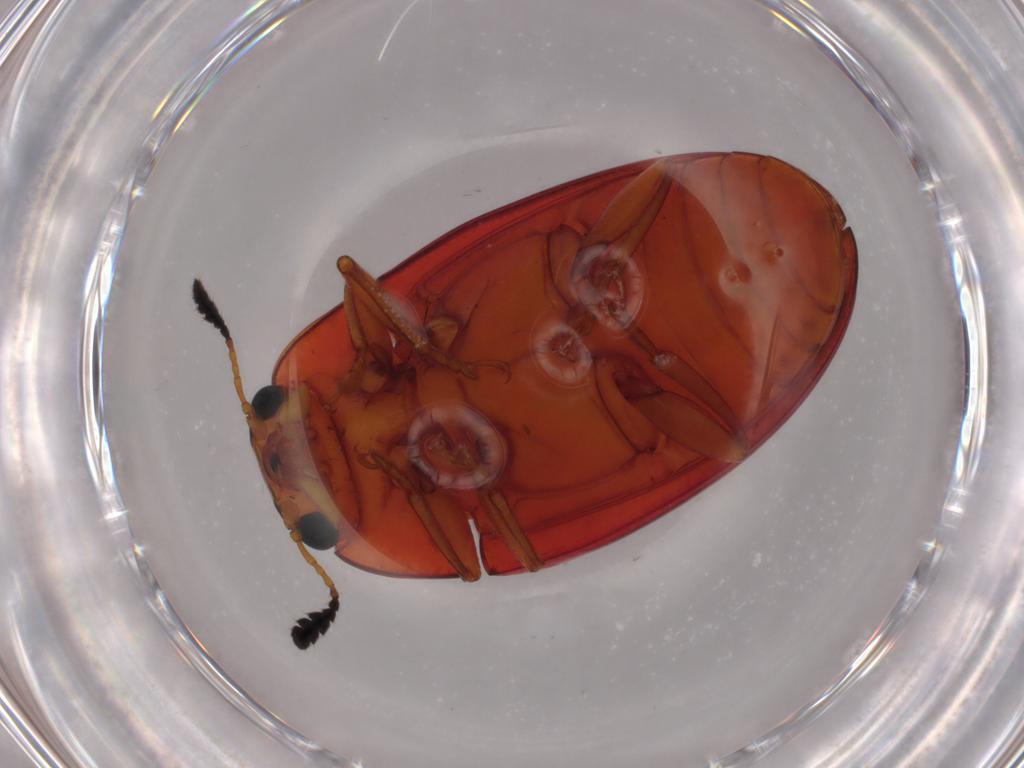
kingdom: Animalia
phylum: Arthropoda
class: Insecta
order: Coleoptera
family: Erotylidae
